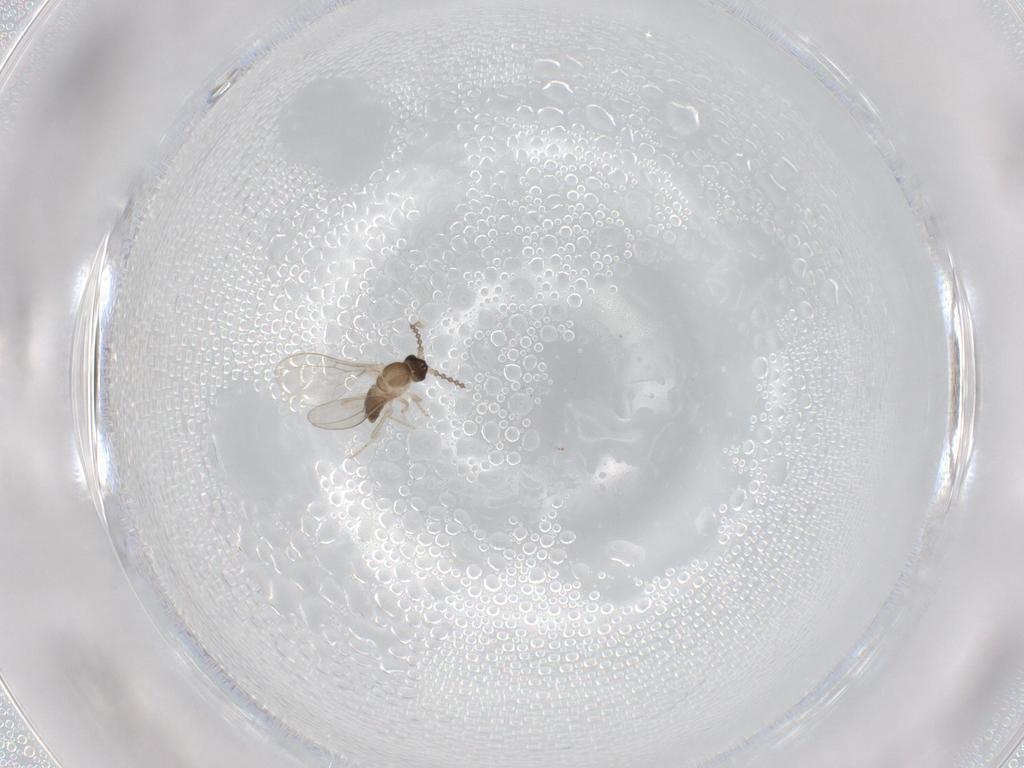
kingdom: Animalia
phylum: Arthropoda
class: Insecta
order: Diptera
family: Cecidomyiidae
